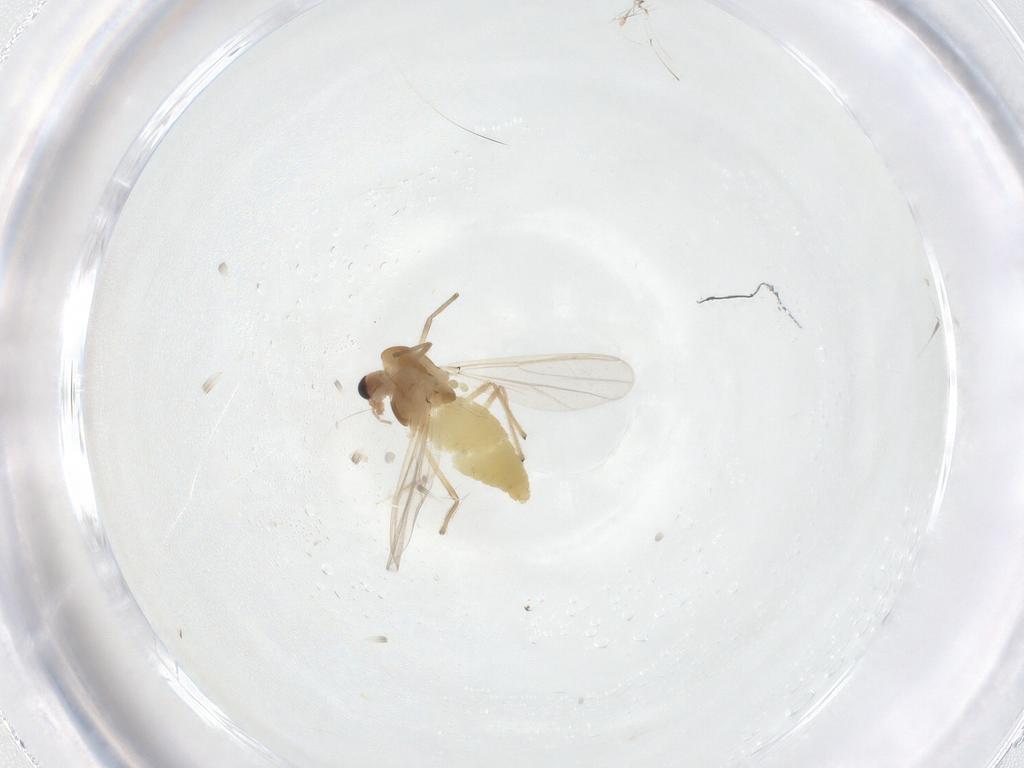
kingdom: Animalia
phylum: Arthropoda
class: Insecta
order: Diptera
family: Chironomidae
